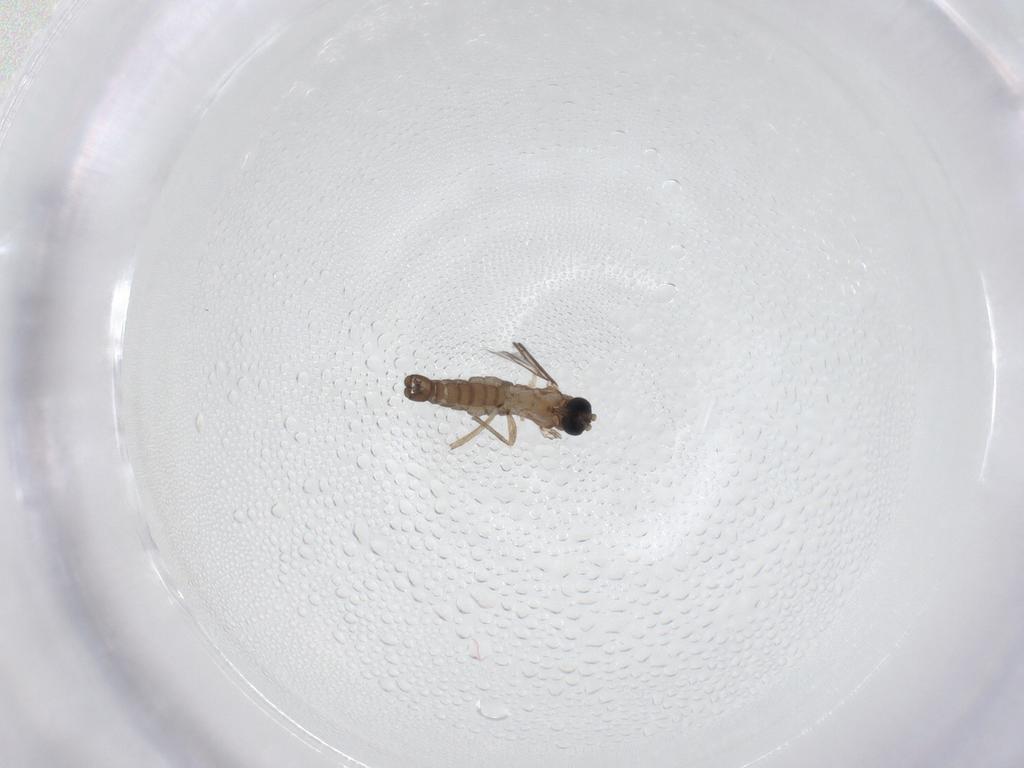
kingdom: Animalia
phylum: Arthropoda
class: Insecta
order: Diptera
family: Sciaridae
